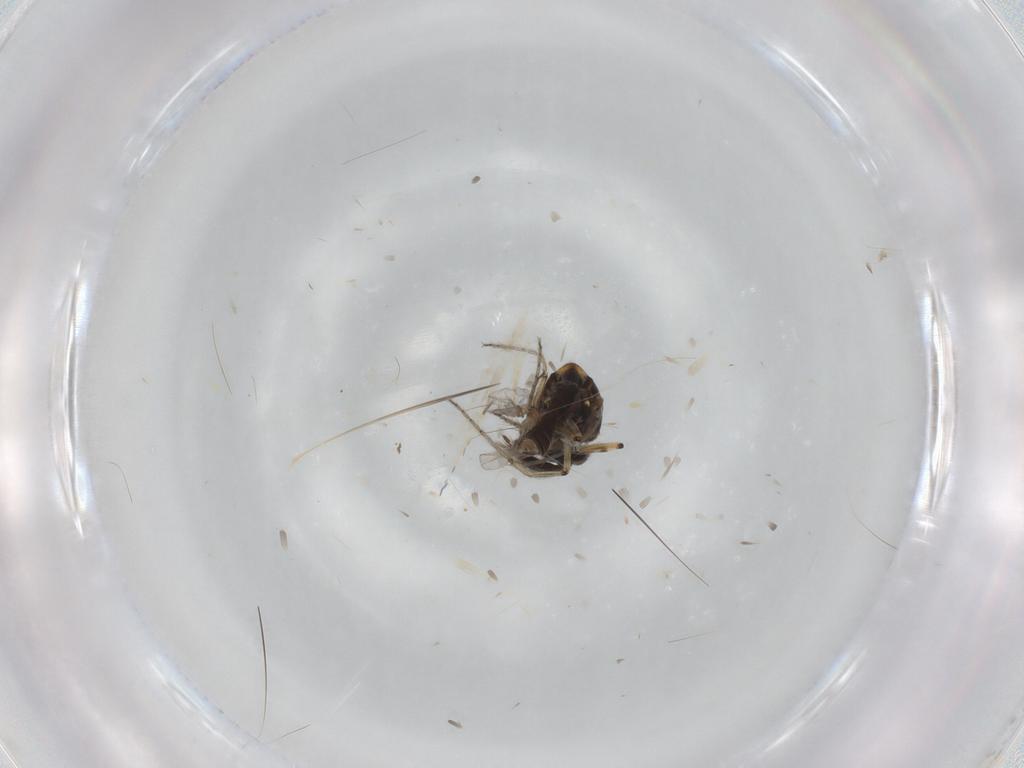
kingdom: Animalia
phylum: Arthropoda
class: Insecta
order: Diptera
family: Ceratopogonidae
